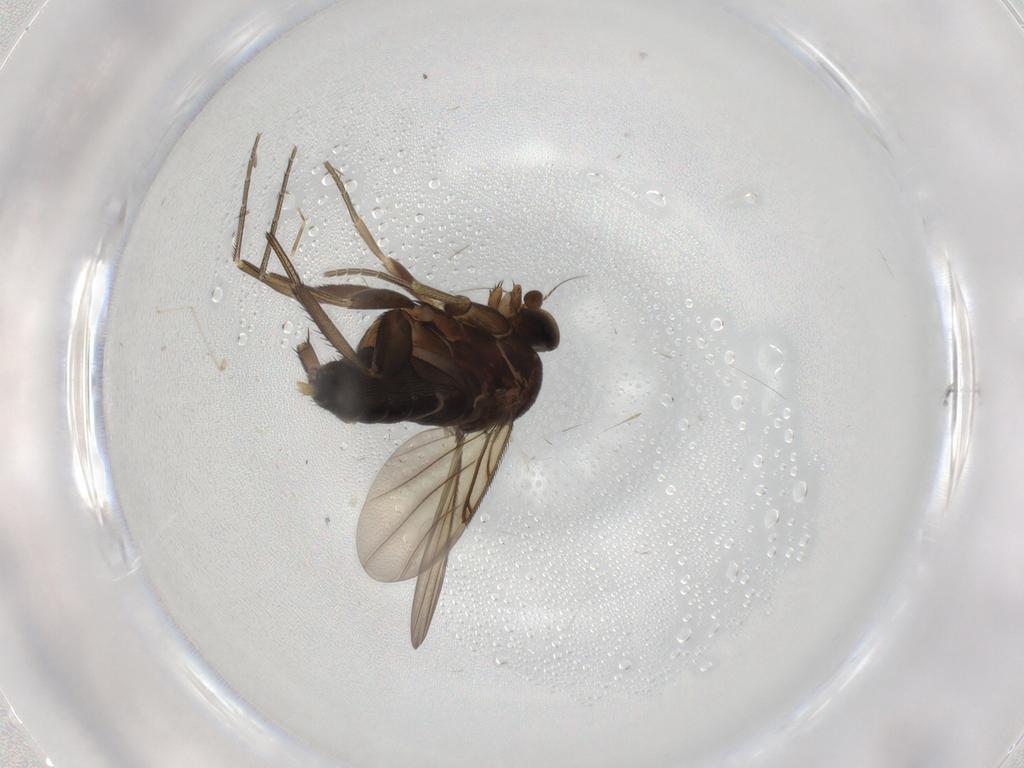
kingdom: Animalia
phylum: Arthropoda
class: Insecta
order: Diptera
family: Phoridae
